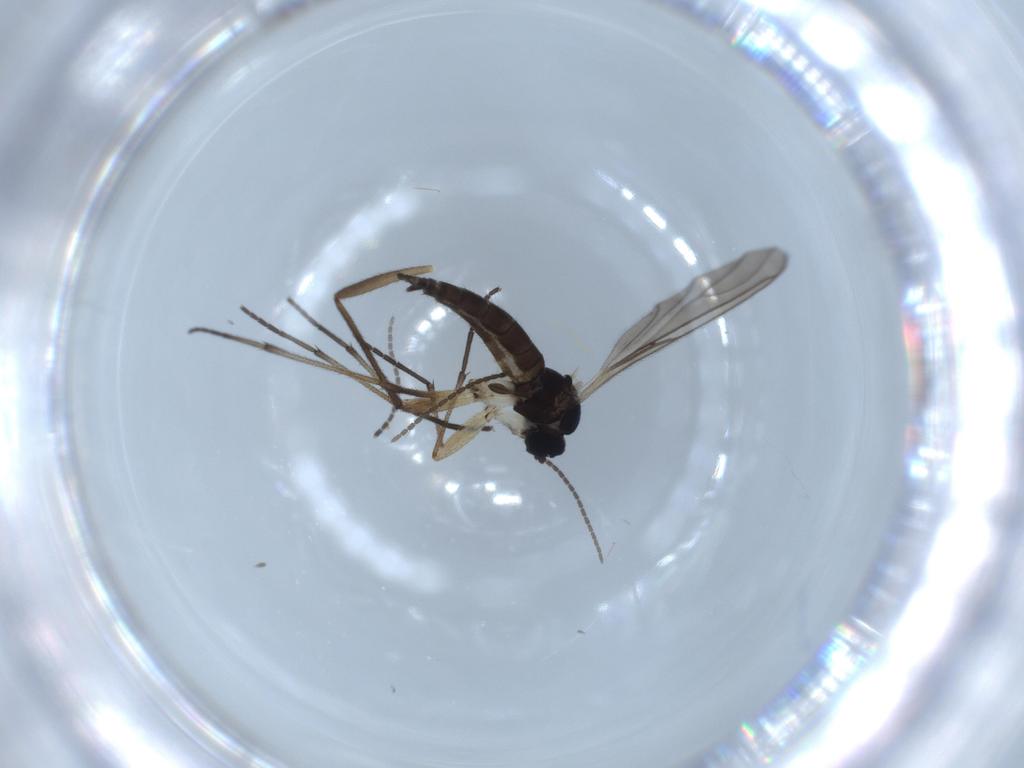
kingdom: Animalia
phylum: Arthropoda
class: Insecta
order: Diptera
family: Sciaridae
